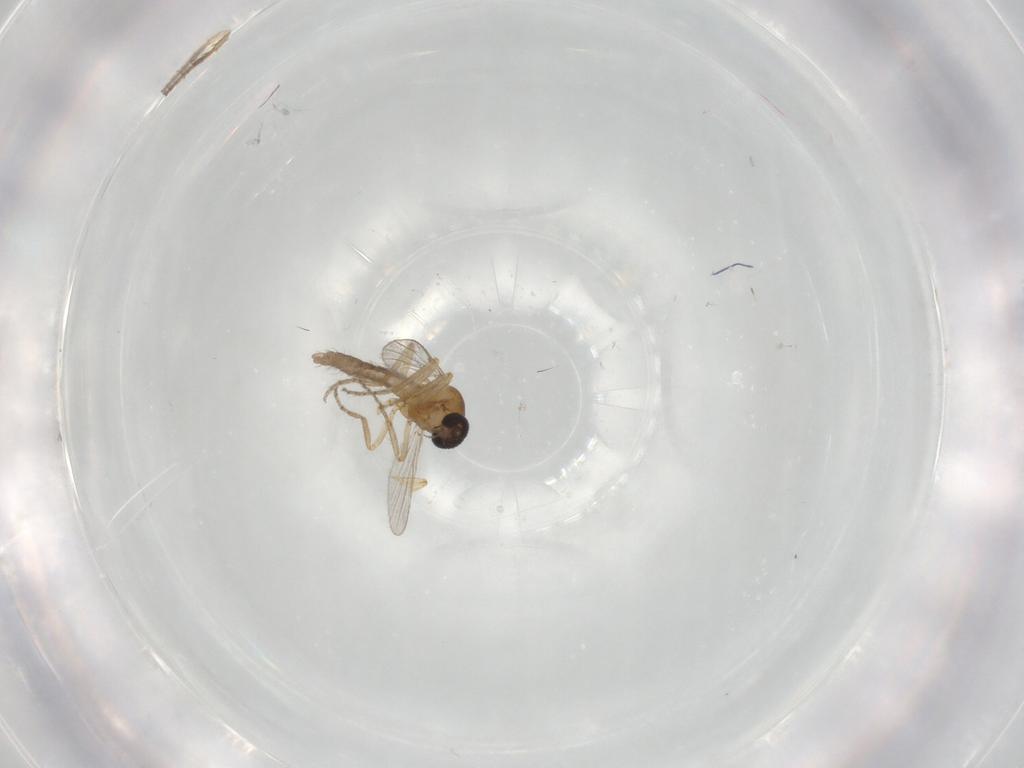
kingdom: Animalia
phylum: Arthropoda
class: Insecta
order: Diptera
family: Ceratopogonidae
